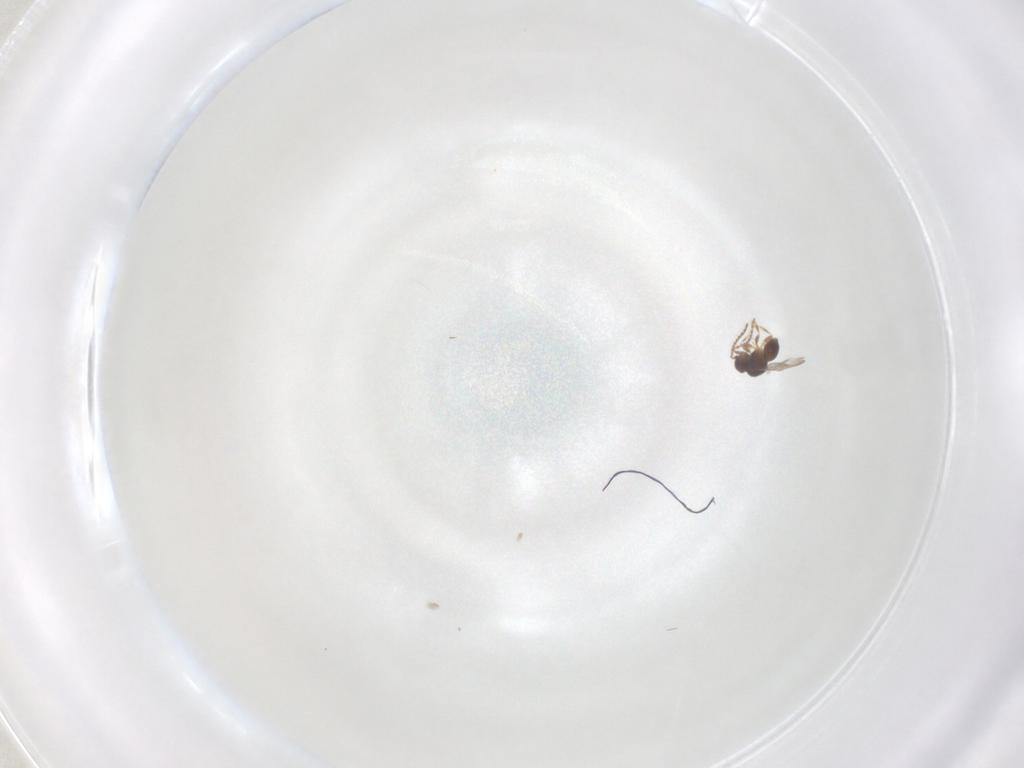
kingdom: Animalia
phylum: Arthropoda
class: Insecta
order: Hymenoptera
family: Ceraphronidae
